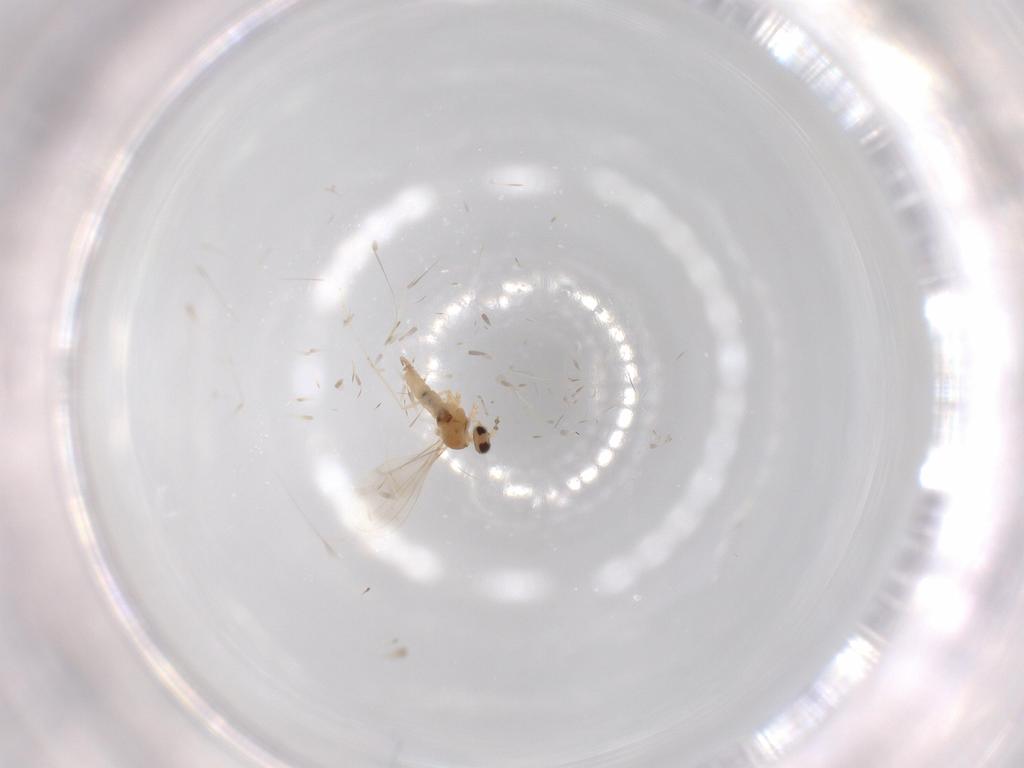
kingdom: Animalia
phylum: Arthropoda
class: Insecta
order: Diptera
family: Cecidomyiidae
